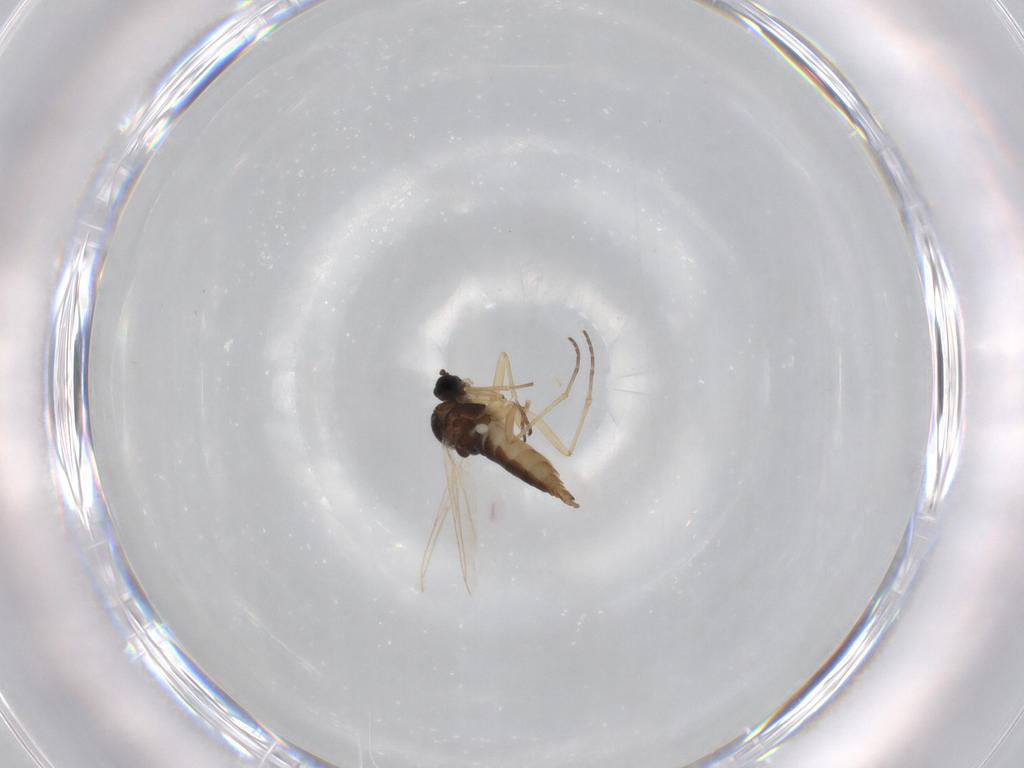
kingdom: Animalia
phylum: Arthropoda
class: Insecta
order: Diptera
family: Sciaridae
